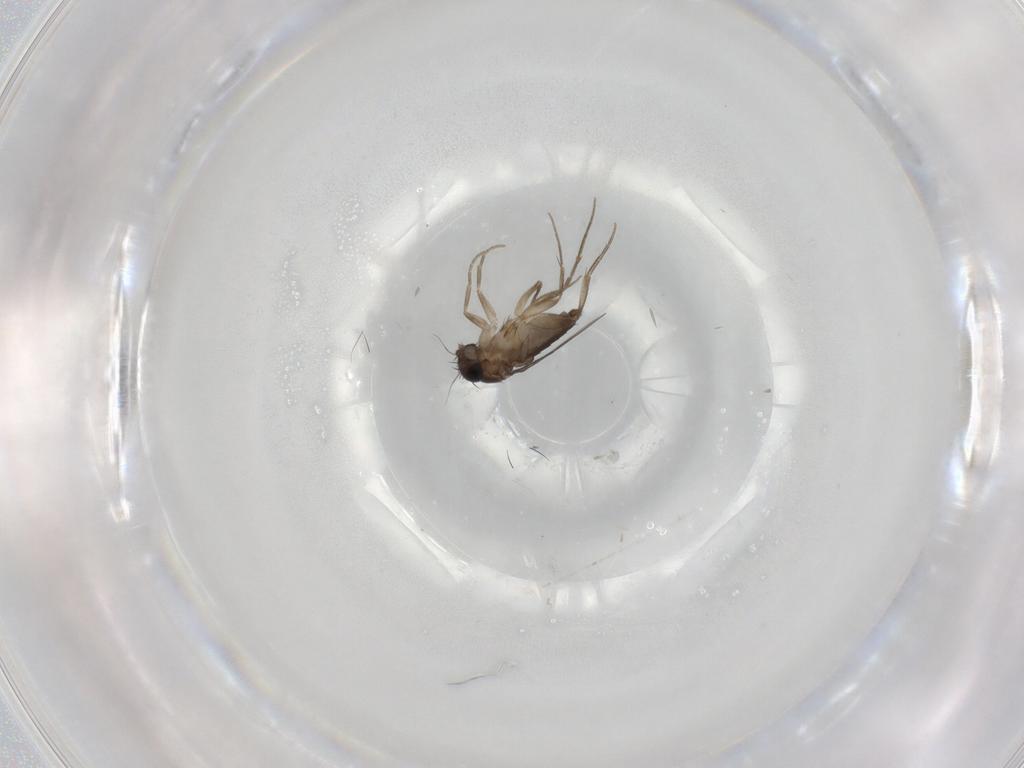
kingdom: Animalia
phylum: Arthropoda
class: Insecta
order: Diptera
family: Phoridae
